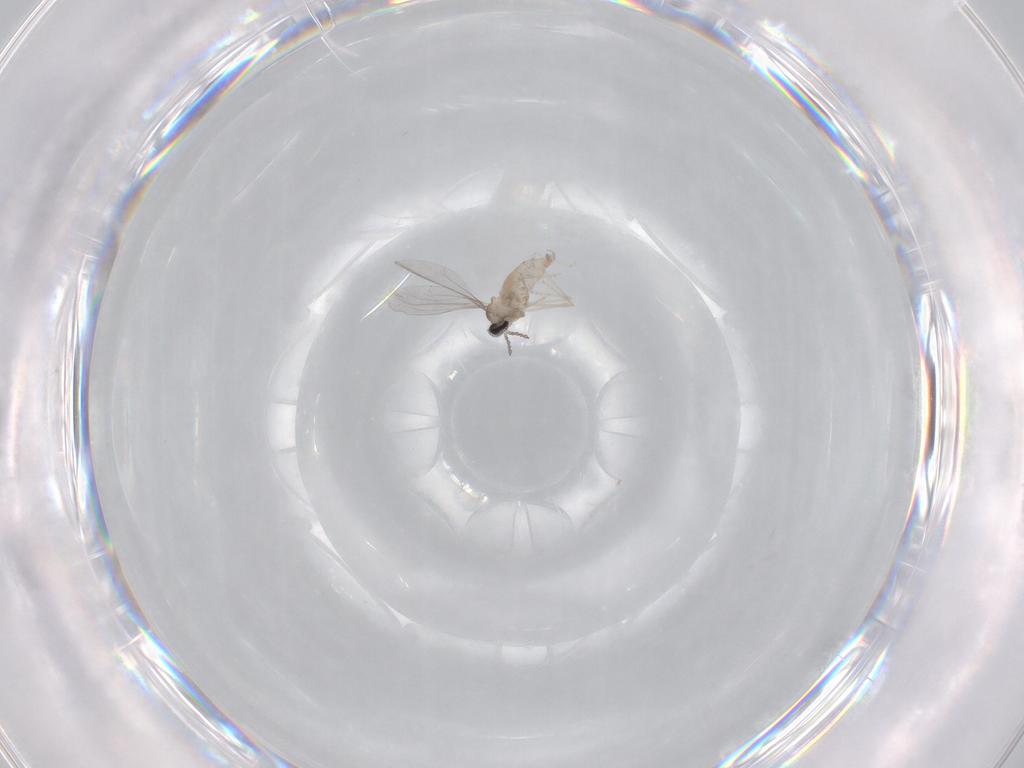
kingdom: Animalia
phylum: Arthropoda
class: Insecta
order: Diptera
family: Cecidomyiidae
